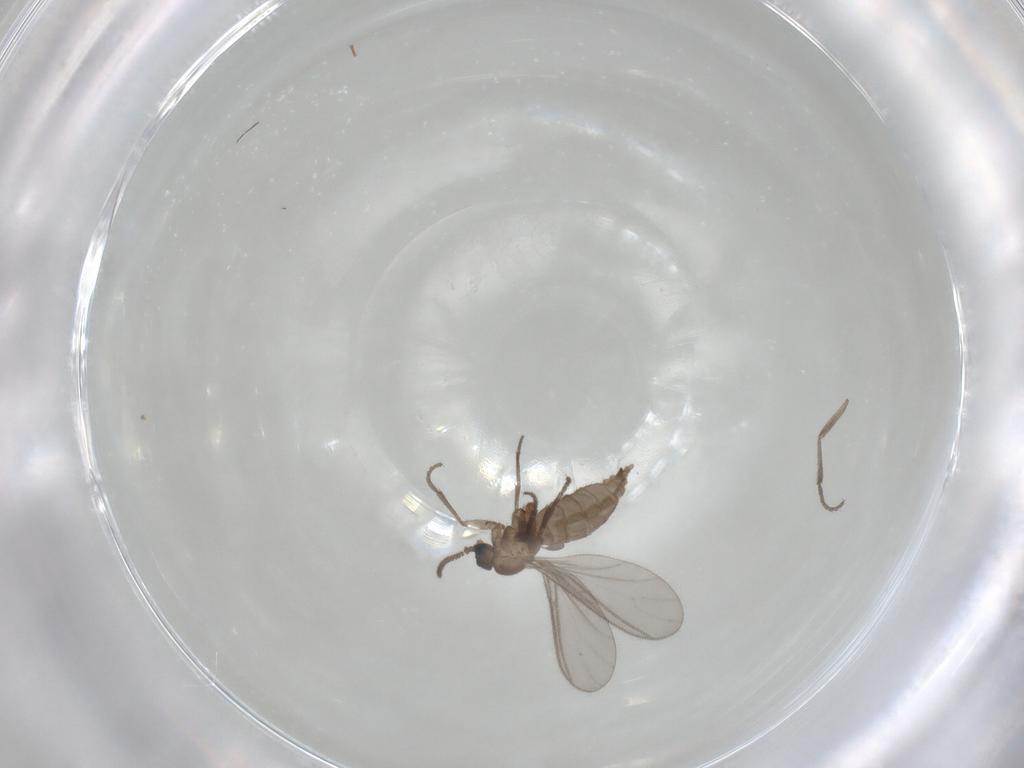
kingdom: Animalia
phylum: Arthropoda
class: Insecta
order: Diptera
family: Sciaridae
